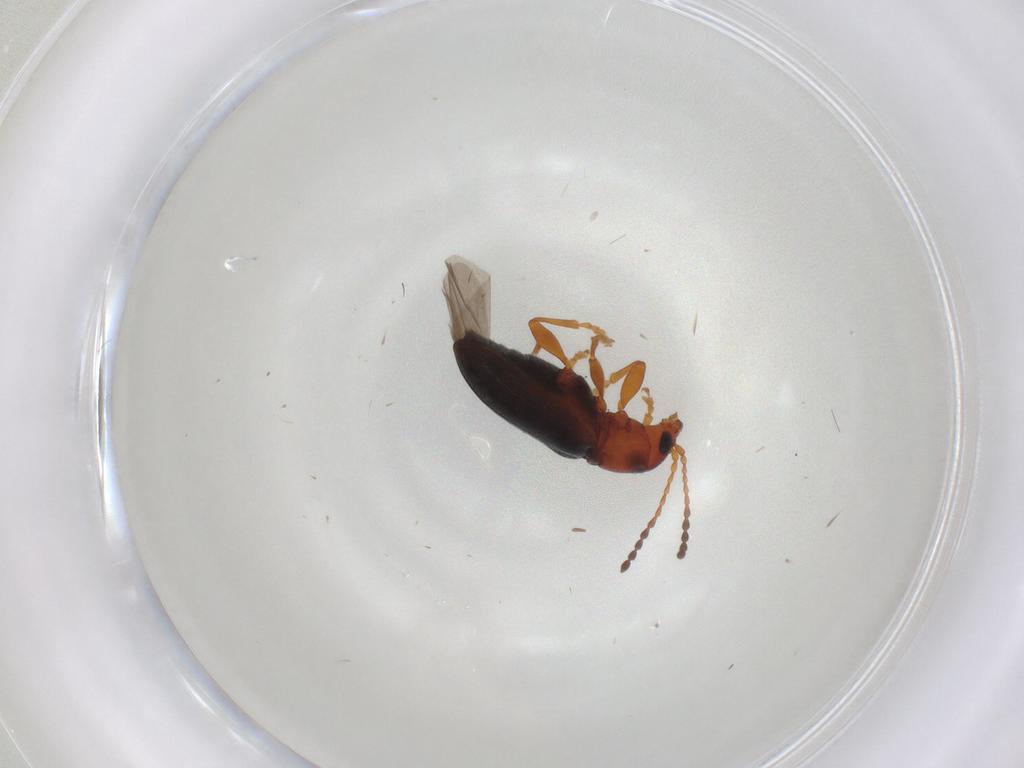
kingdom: Animalia
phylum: Arthropoda
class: Insecta
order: Coleoptera
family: Chrysomelidae
